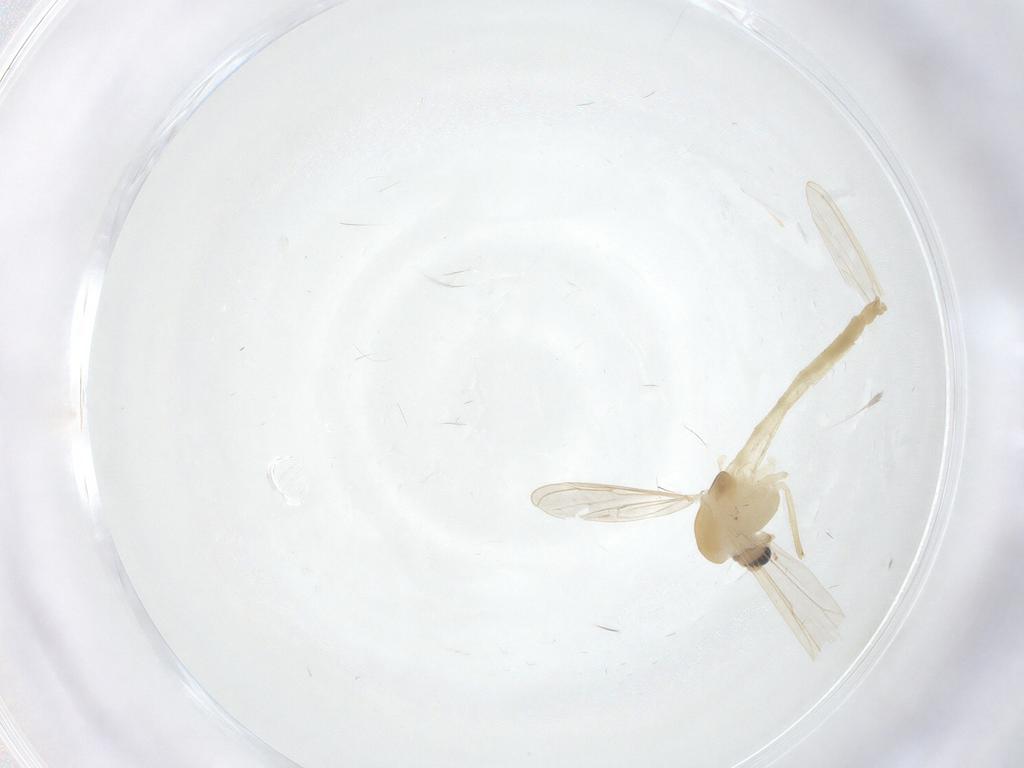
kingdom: Animalia
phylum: Arthropoda
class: Insecta
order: Diptera
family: Chironomidae
